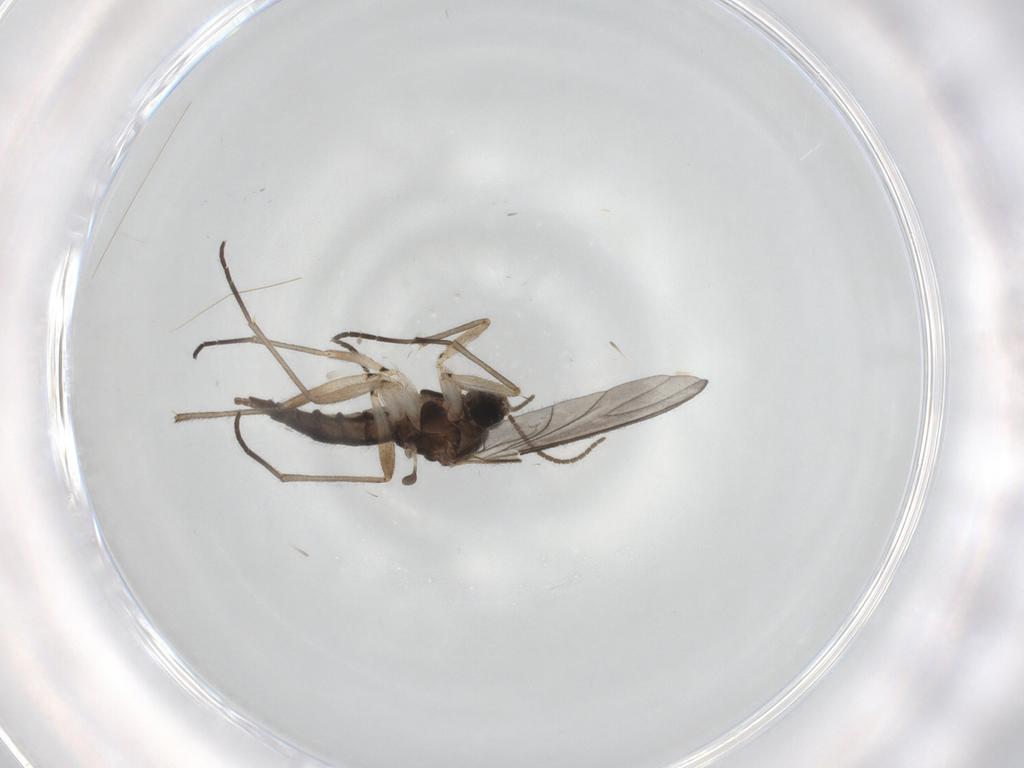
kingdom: Animalia
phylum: Arthropoda
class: Insecta
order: Diptera
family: Sciaridae
